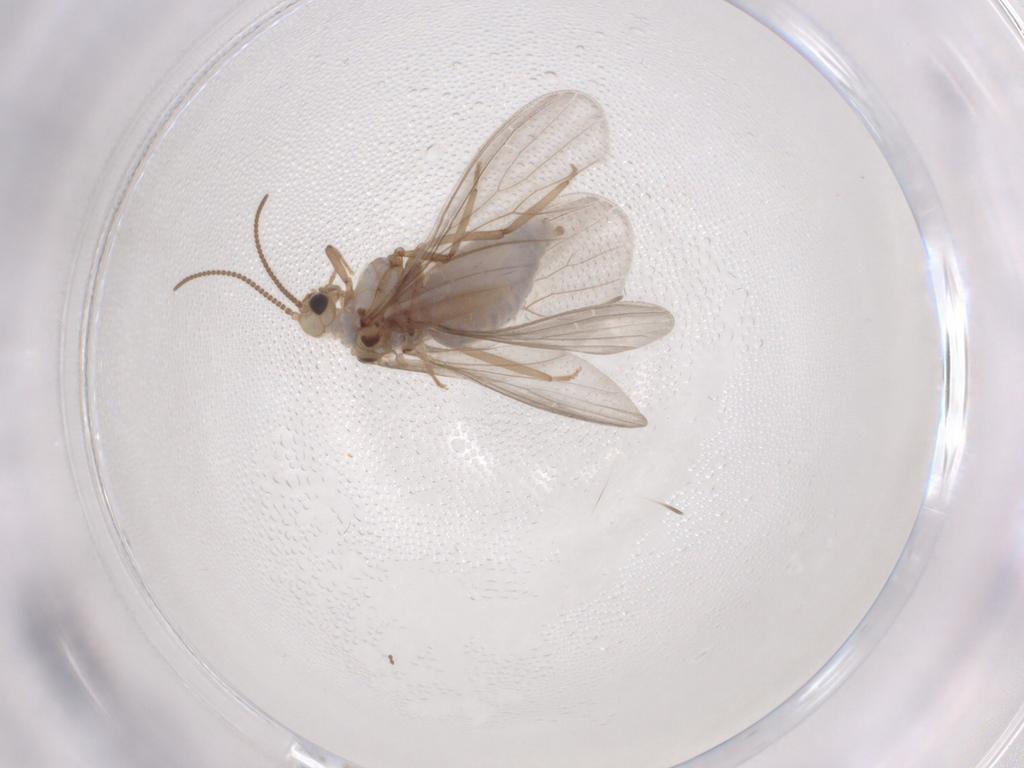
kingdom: Animalia
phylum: Arthropoda
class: Insecta
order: Neuroptera
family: Coniopterygidae
